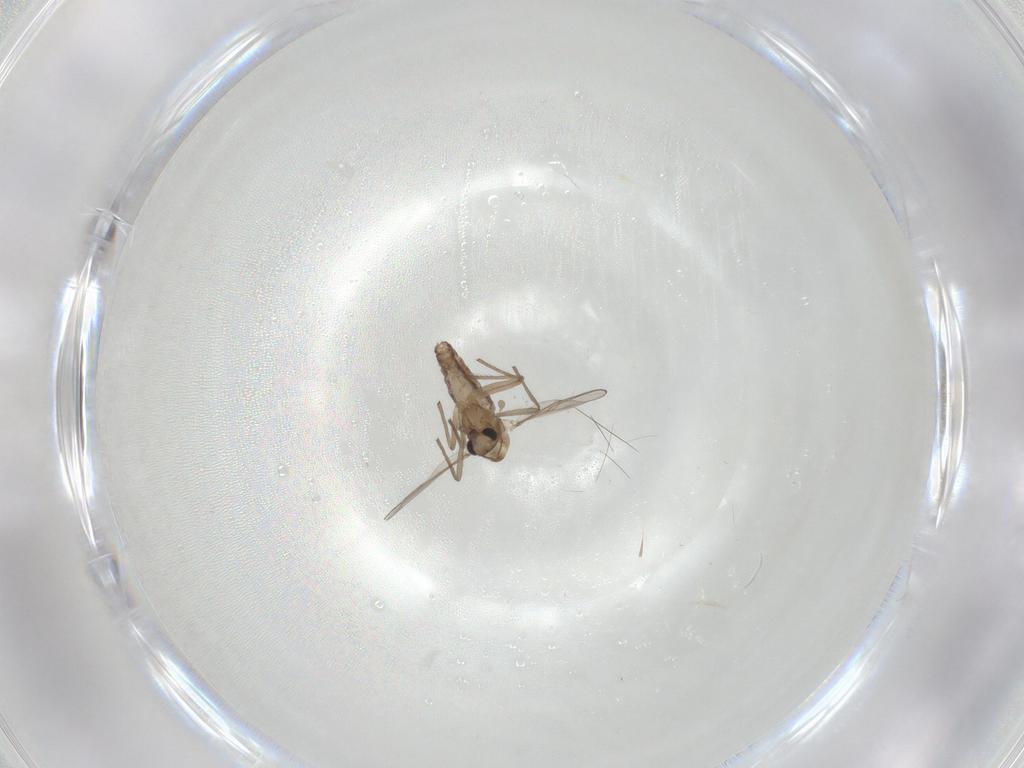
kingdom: Animalia
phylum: Arthropoda
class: Insecta
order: Diptera
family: Chironomidae
